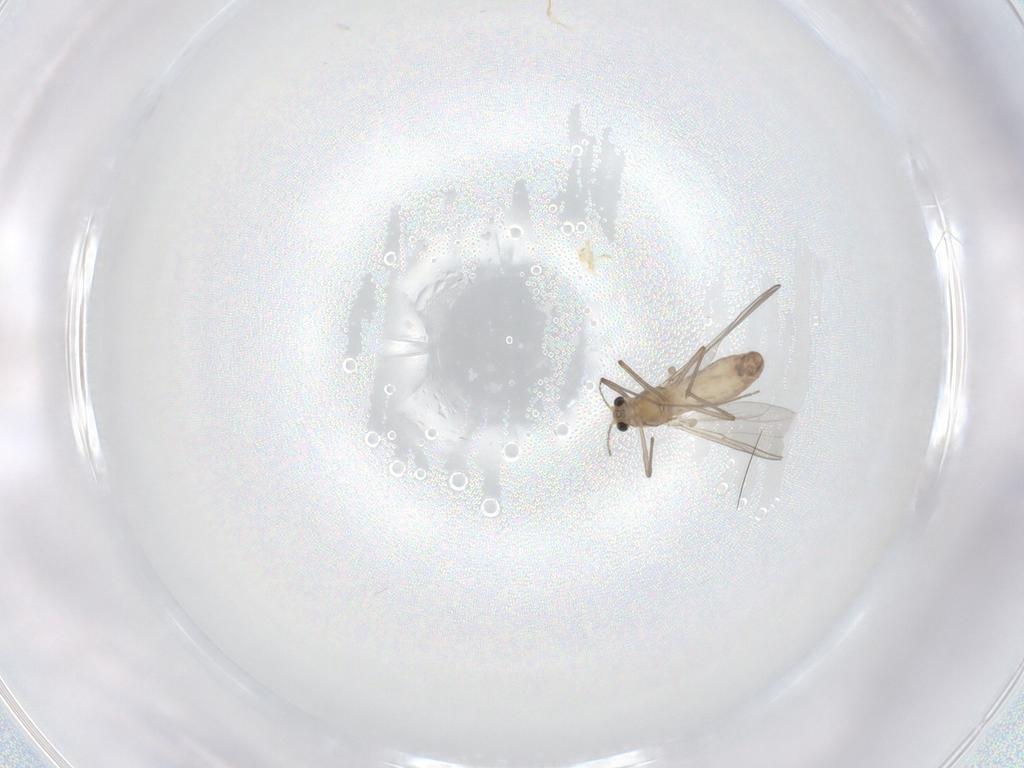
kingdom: Animalia
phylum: Arthropoda
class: Insecta
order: Diptera
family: Chironomidae
